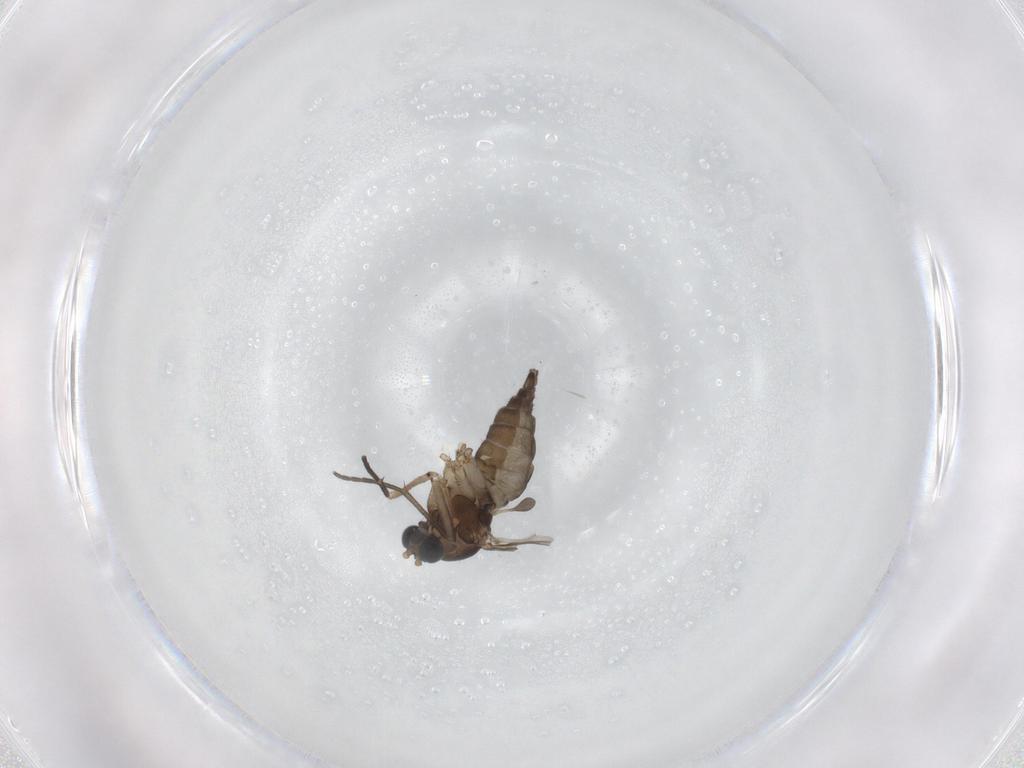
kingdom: Animalia
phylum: Arthropoda
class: Insecta
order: Diptera
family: Sciaridae
